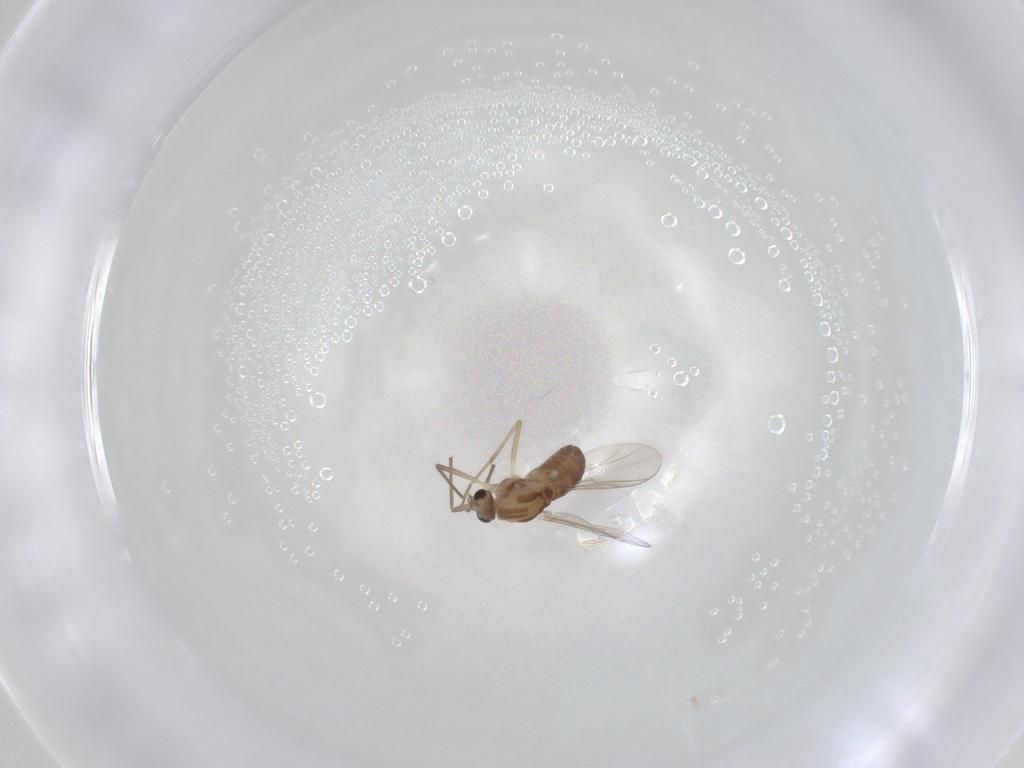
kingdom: Animalia
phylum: Arthropoda
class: Insecta
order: Diptera
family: Chironomidae
